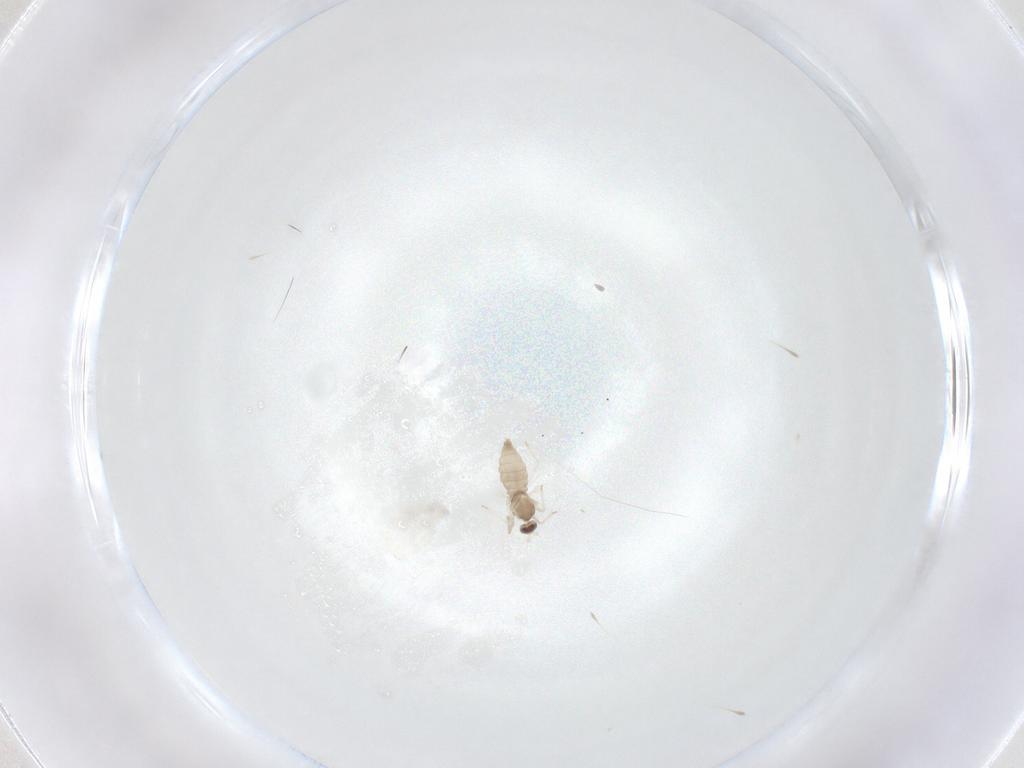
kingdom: Animalia
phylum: Arthropoda
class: Insecta
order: Diptera
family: Cecidomyiidae
